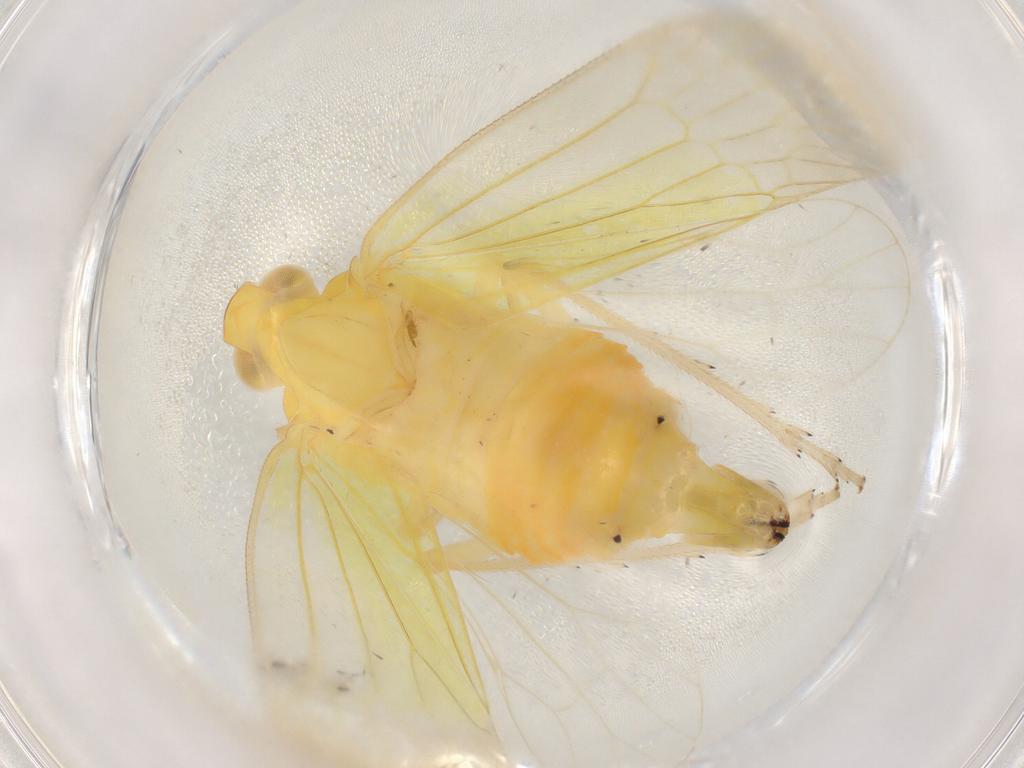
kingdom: Animalia
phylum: Arthropoda
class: Insecta
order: Hemiptera
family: Tropiduchidae
